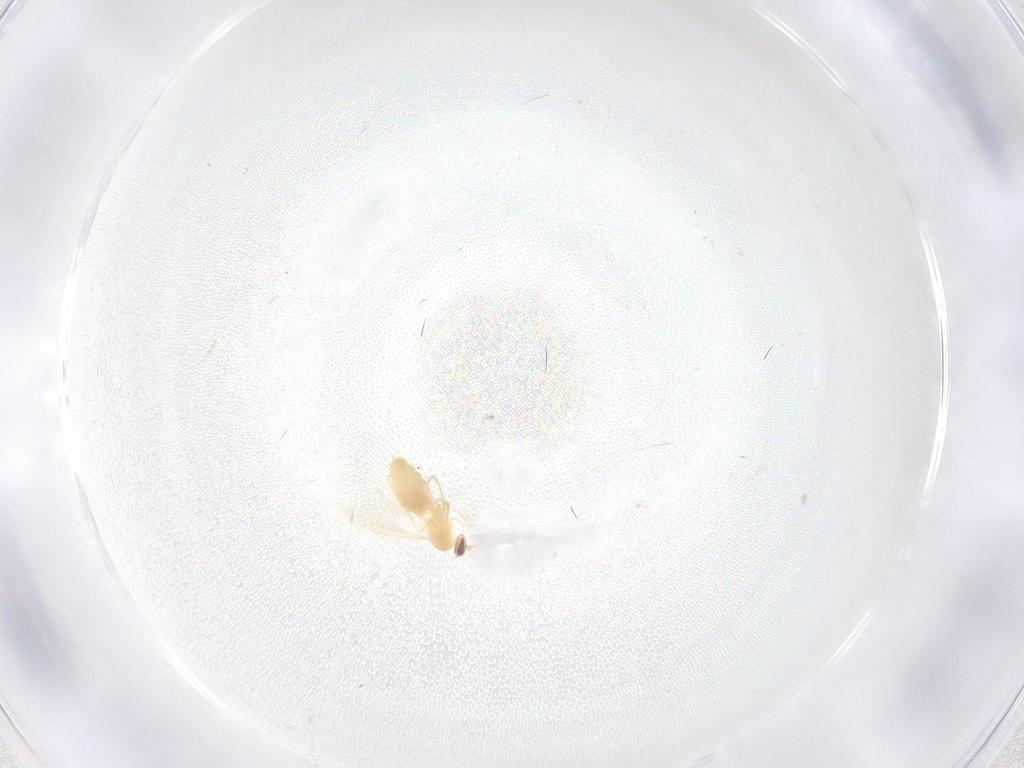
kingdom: Animalia
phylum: Arthropoda
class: Insecta
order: Diptera
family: Cecidomyiidae
